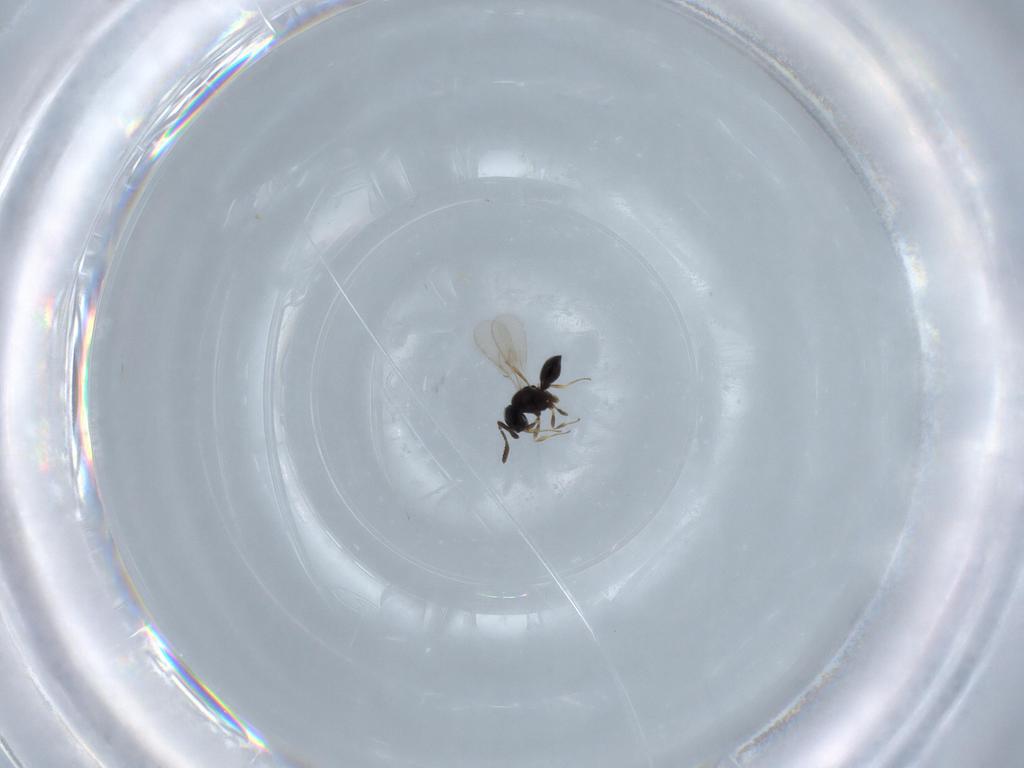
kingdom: Animalia
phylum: Arthropoda
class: Insecta
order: Hymenoptera
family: Scelionidae
